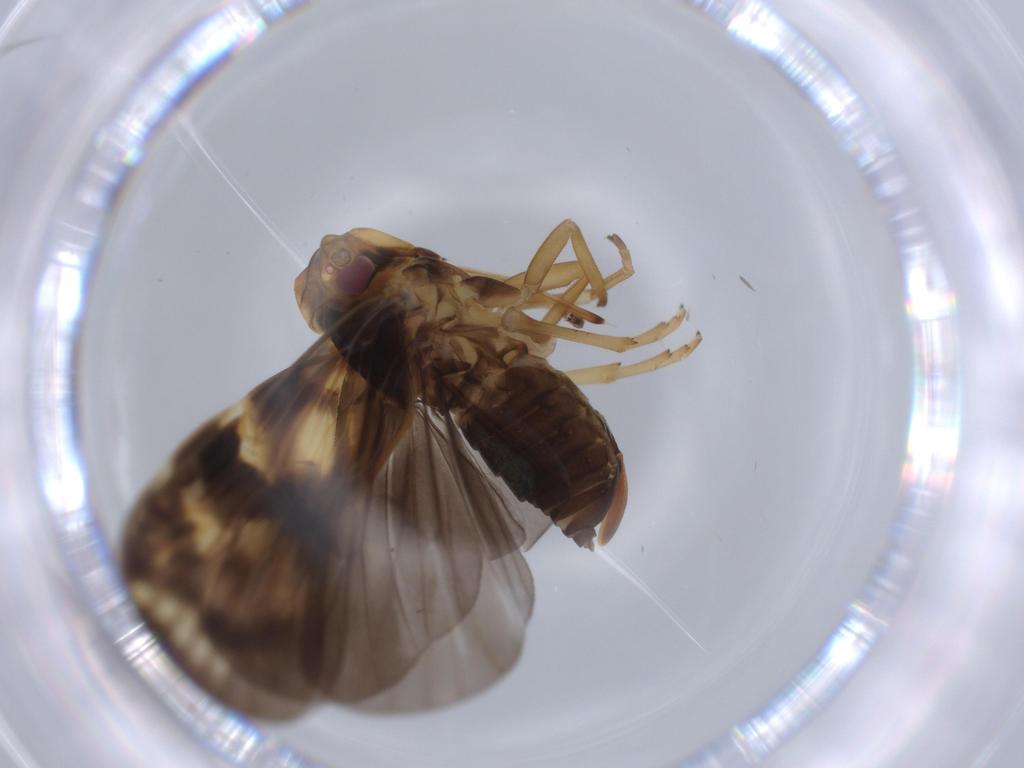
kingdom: Animalia
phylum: Arthropoda
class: Insecta
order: Hemiptera
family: Cixiidae
